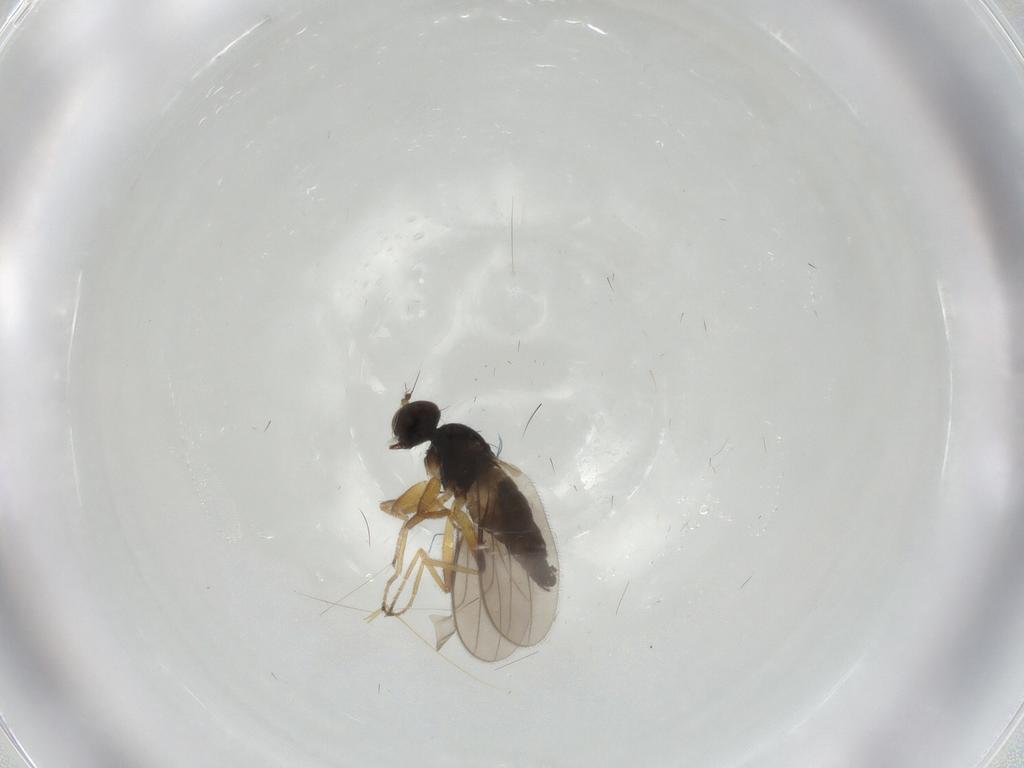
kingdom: Animalia
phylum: Arthropoda
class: Insecta
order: Diptera
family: Hybotidae
